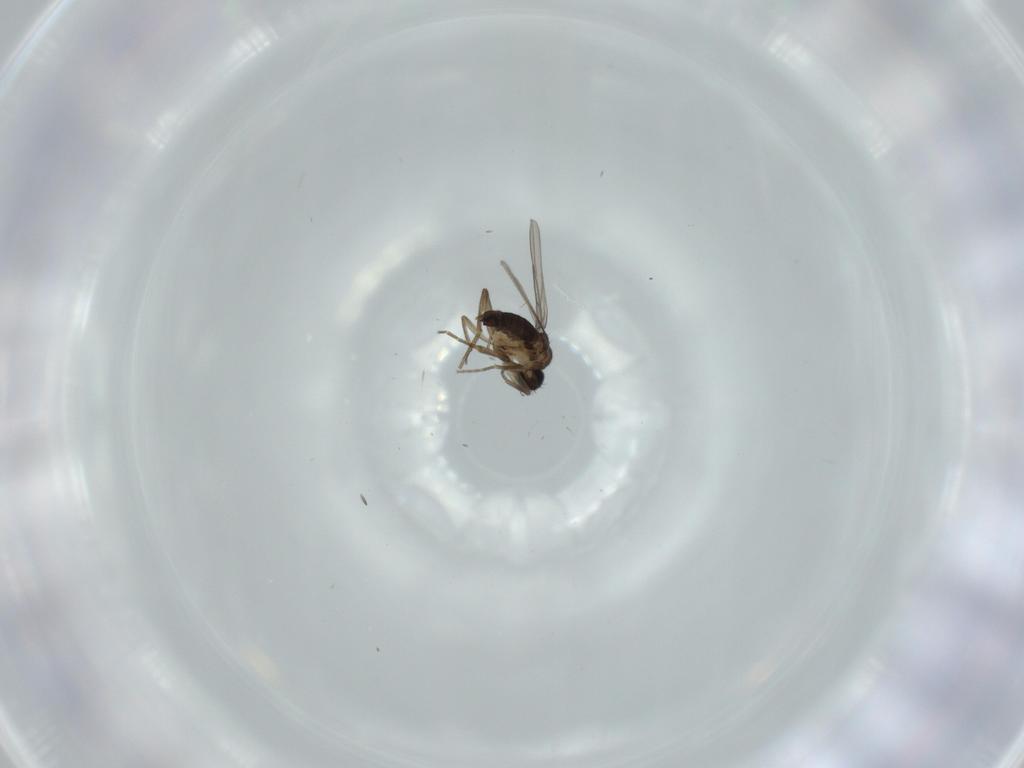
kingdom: Animalia
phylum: Arthropoda
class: Insecta
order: Diptera
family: Phoridae
